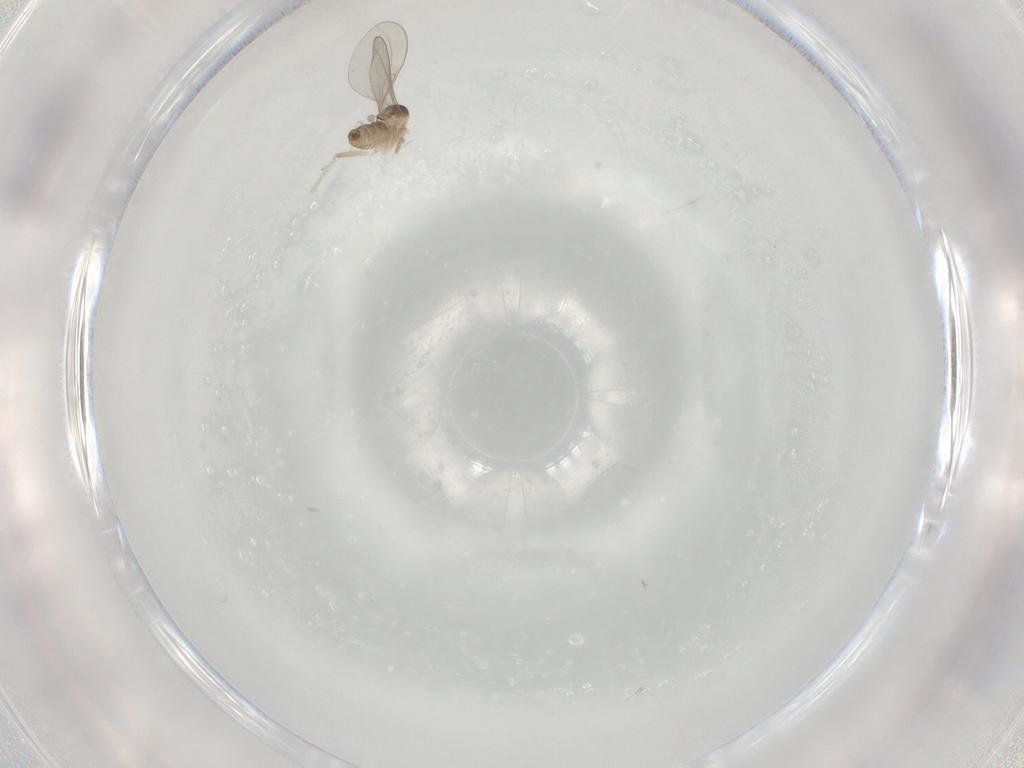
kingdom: Animalia
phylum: Arthropoda
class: Insecta
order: Diptera
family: Cecidomyiidae
